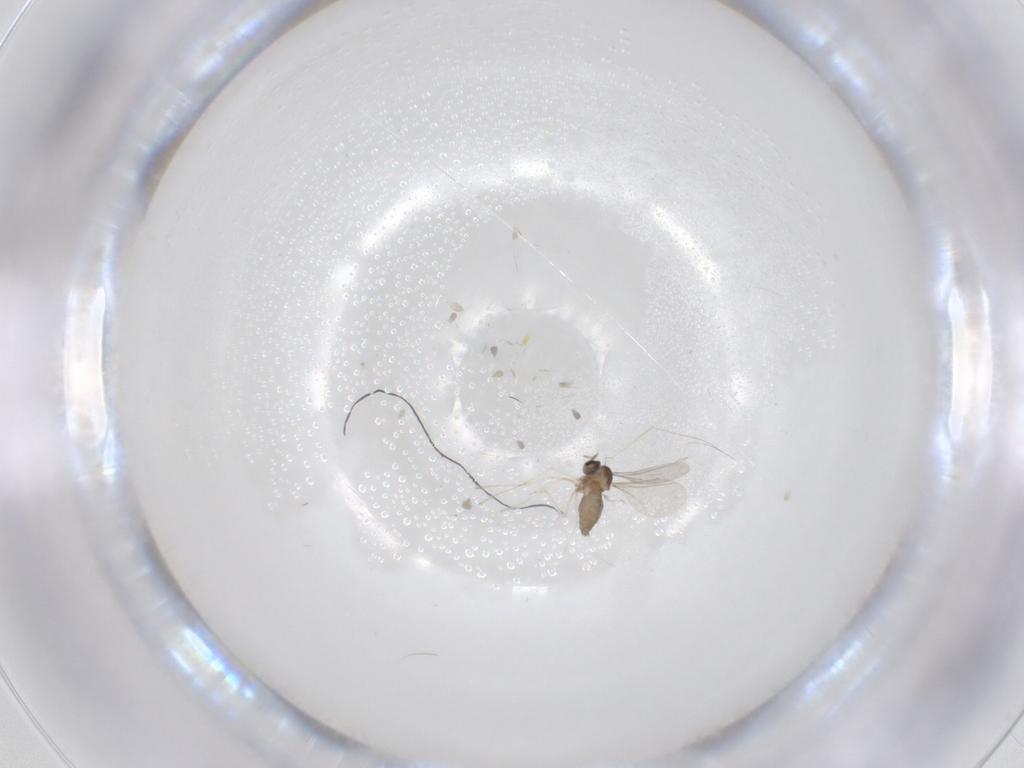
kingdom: Animalia
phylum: Arthropoda
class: Insecta
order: Diptera
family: Cecidomyiidae
